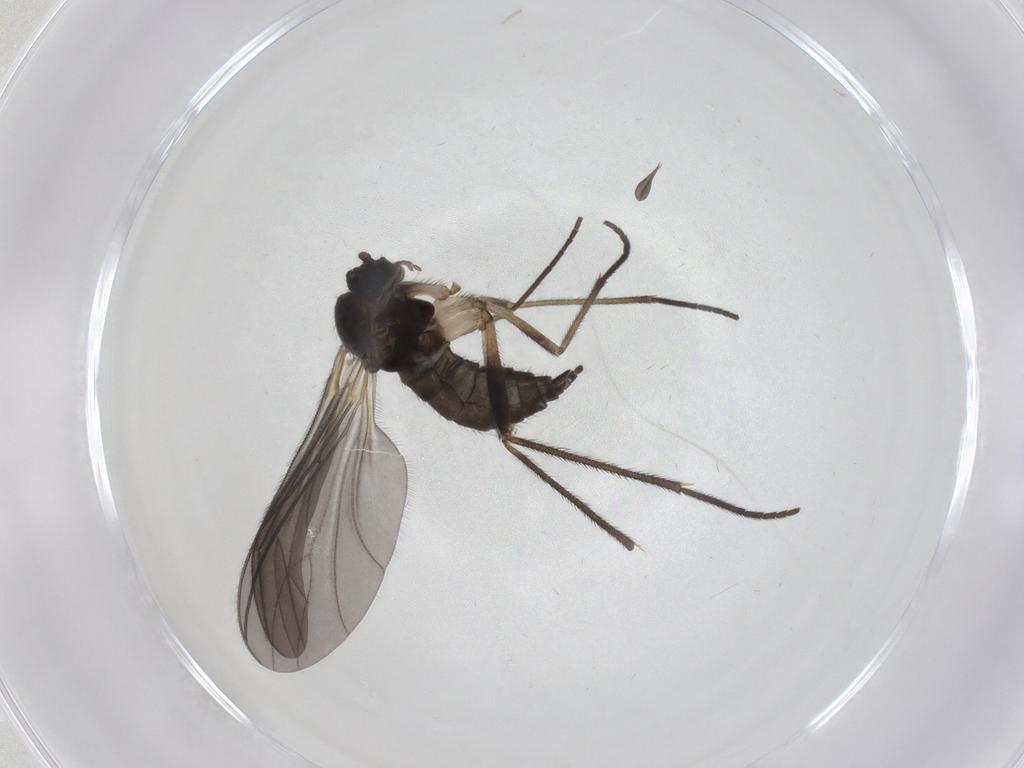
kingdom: Animalia
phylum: Arthropoda
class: Insecta
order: Diptera
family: Sciaridae
